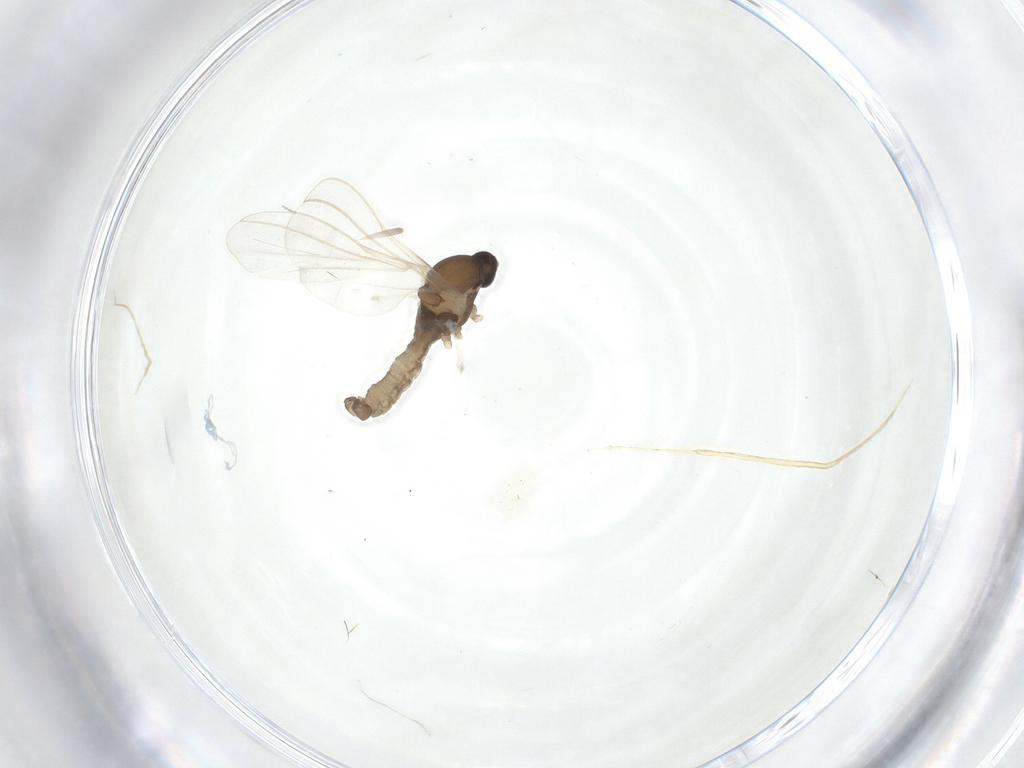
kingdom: Animalia
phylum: Arthropoda
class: Insecta
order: Diptera
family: Cecidomyiidae
